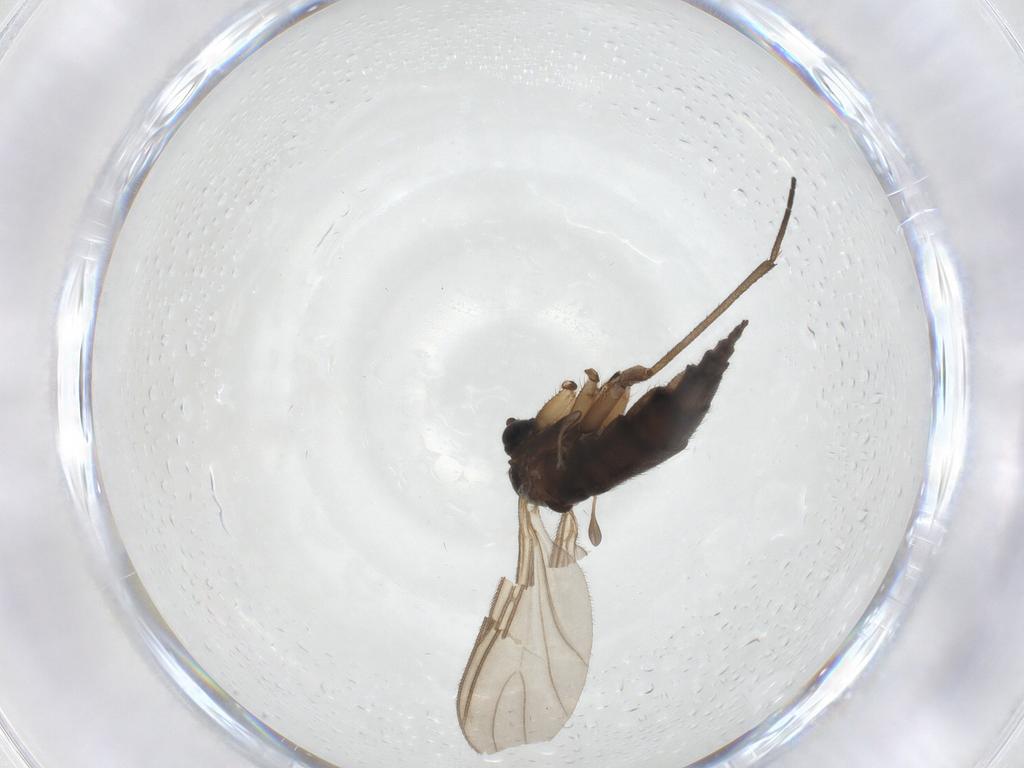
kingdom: Animalia
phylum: Arthropoda
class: Insecta
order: Diptera
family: Sciaridae
